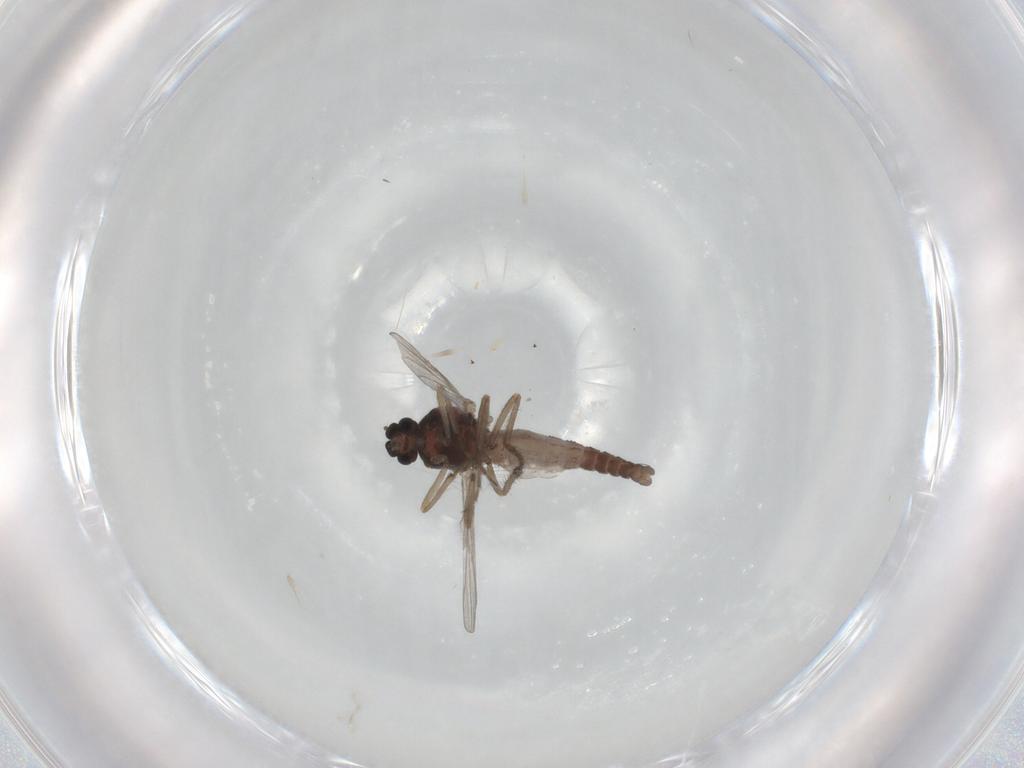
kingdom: Animalia
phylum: Arthropoda
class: Insecta
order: Diptera
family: Ceratopogonidae
